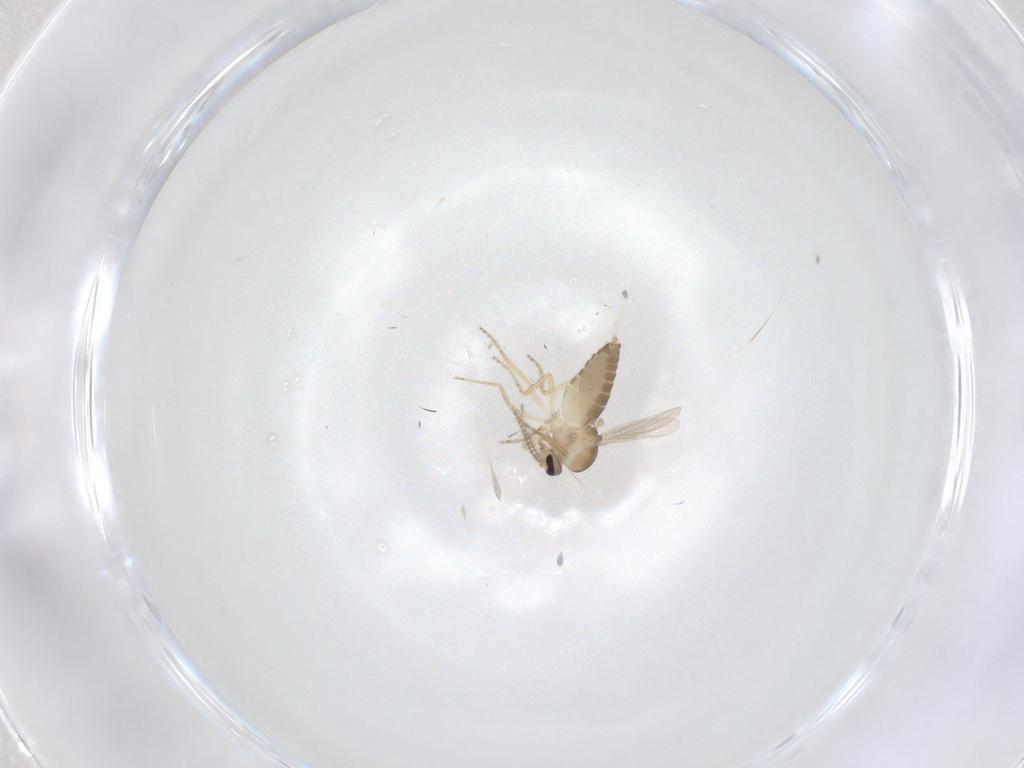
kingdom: Animalia
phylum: Arthropoda
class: Insecta
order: Diptera
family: Ceratopogonidae
